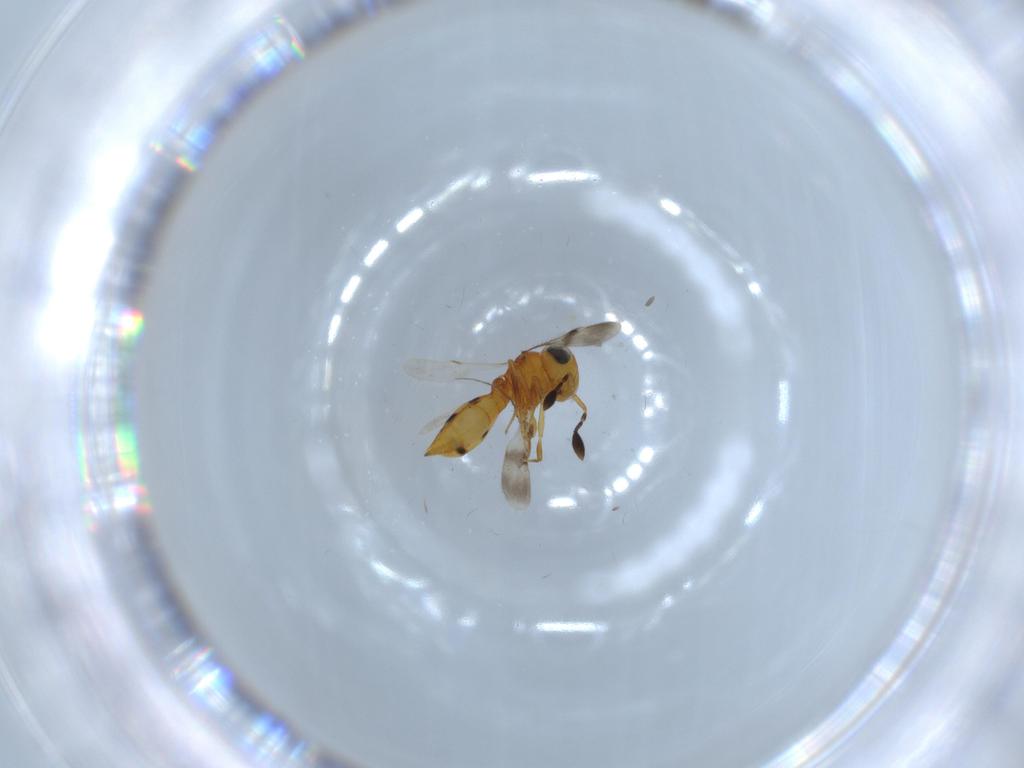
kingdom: Animalia
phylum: Arthropoda
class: Insecta
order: Hymenoptera
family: Scelionidae
